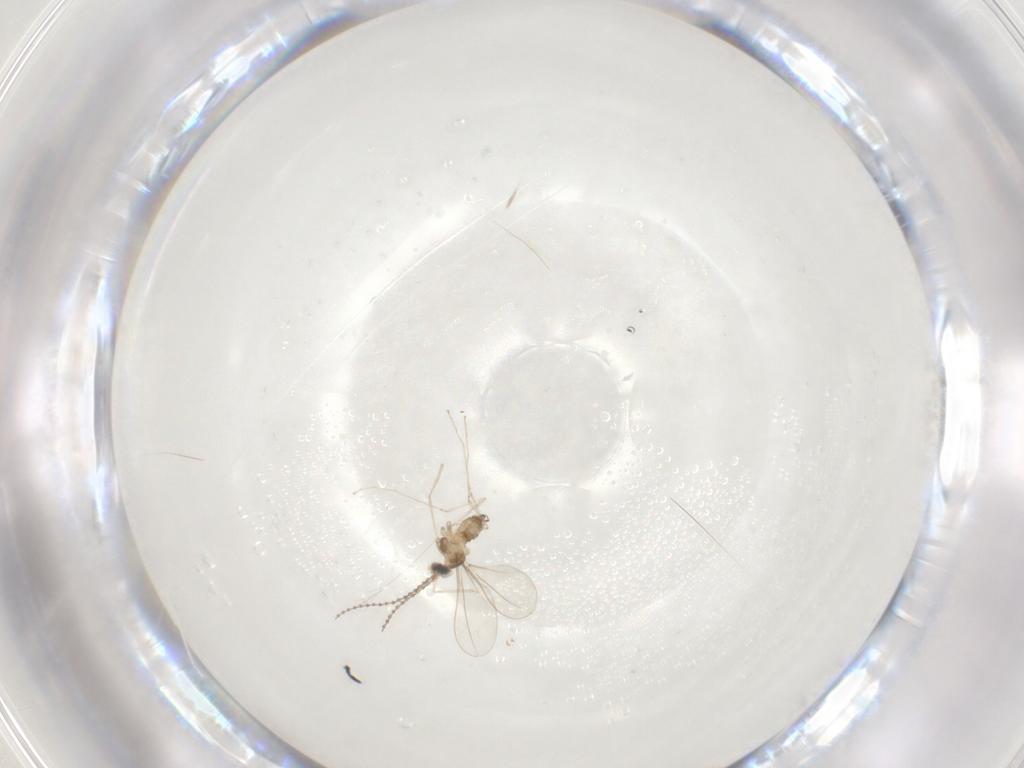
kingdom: Animalia
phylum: Arthropoda
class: Insecta
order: Diptera
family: Cecidomyiidae
